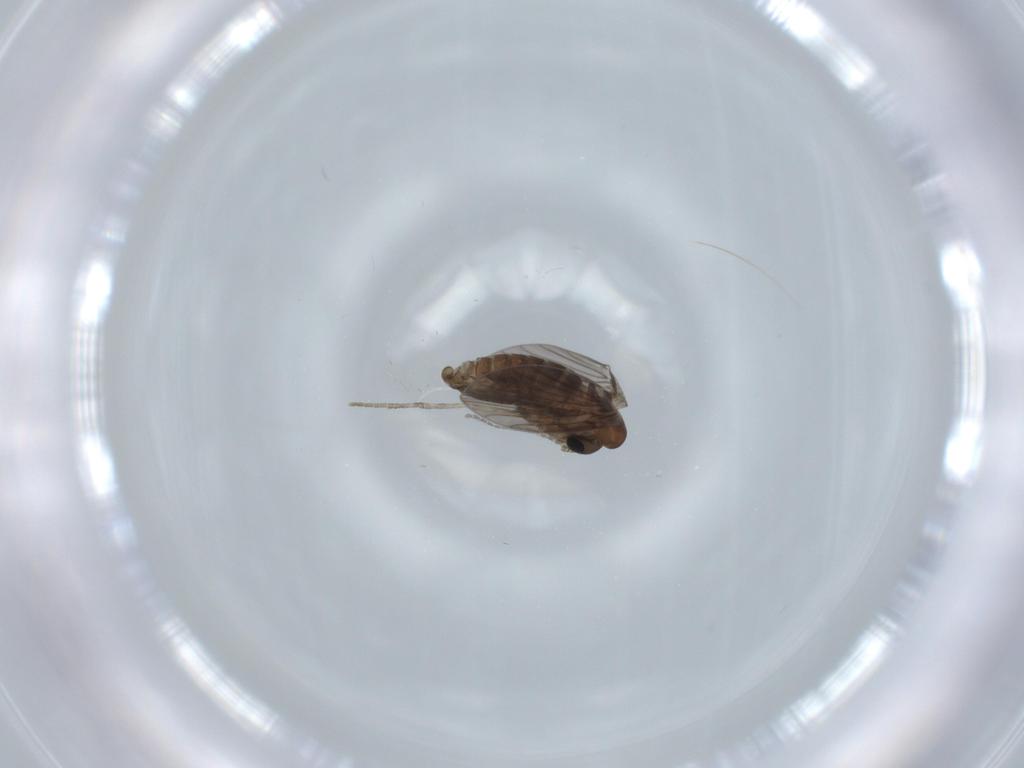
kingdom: Animalia
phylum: Arthropoda
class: Insecta
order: Diptera
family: Psychodidae
